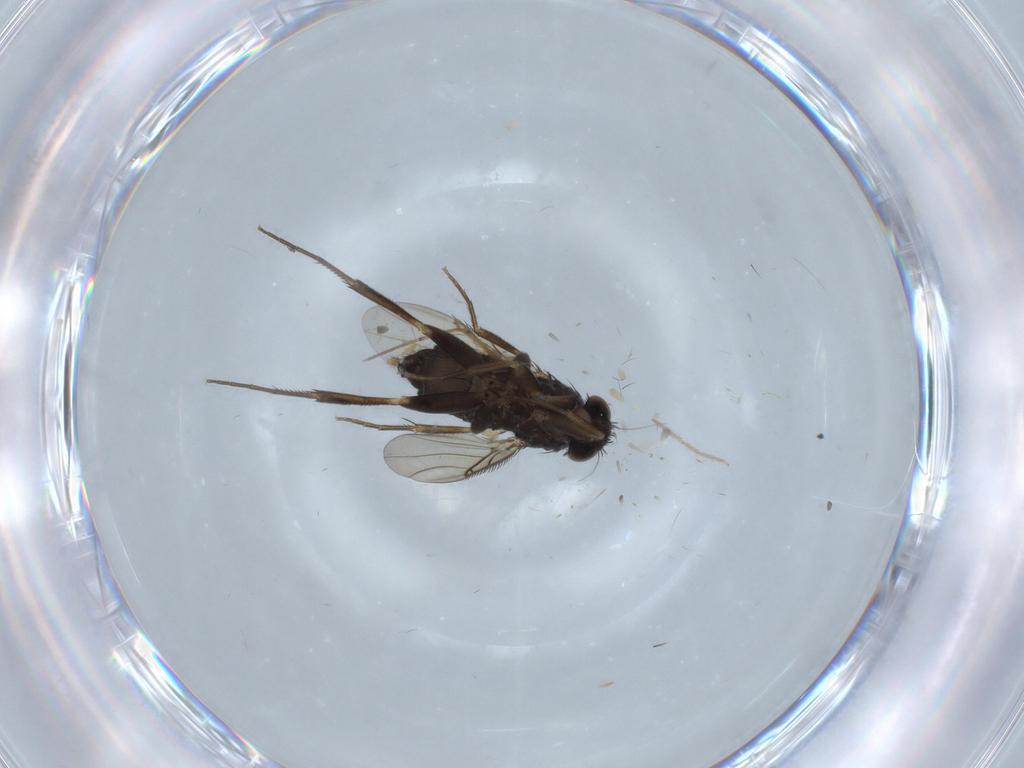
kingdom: Animalia
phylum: Arthropoda
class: Insecta
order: Diptera
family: Phoridae
